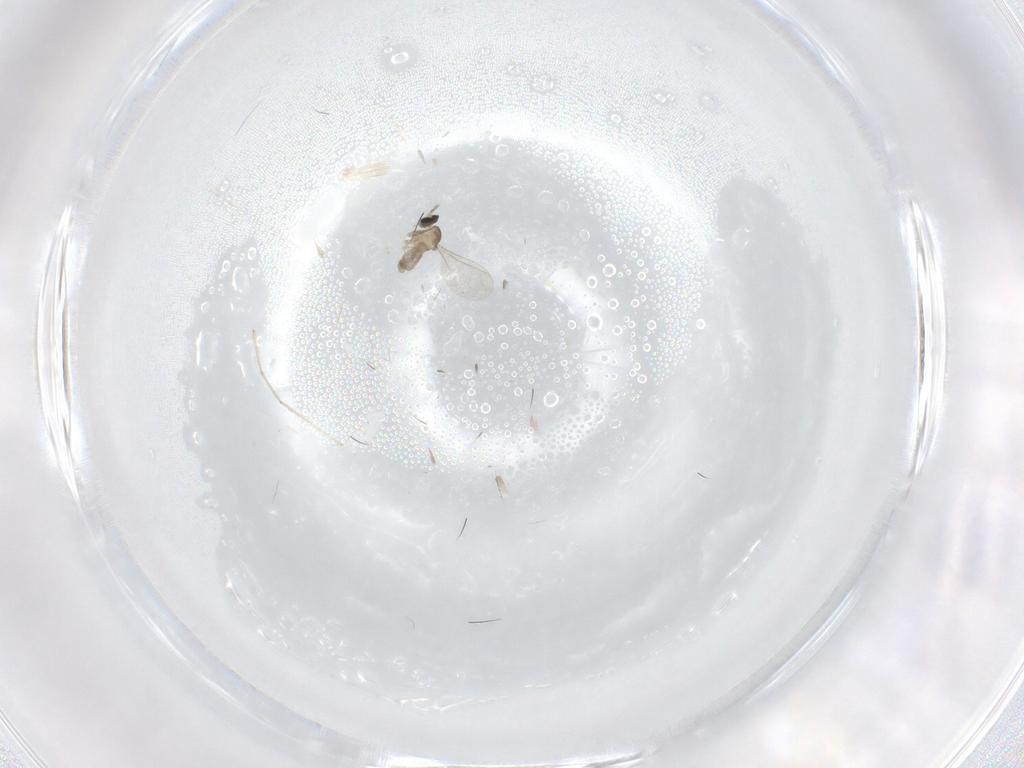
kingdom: Animalia
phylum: Arthropoda
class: Insecta
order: Diptera
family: Cecidomyiidae
